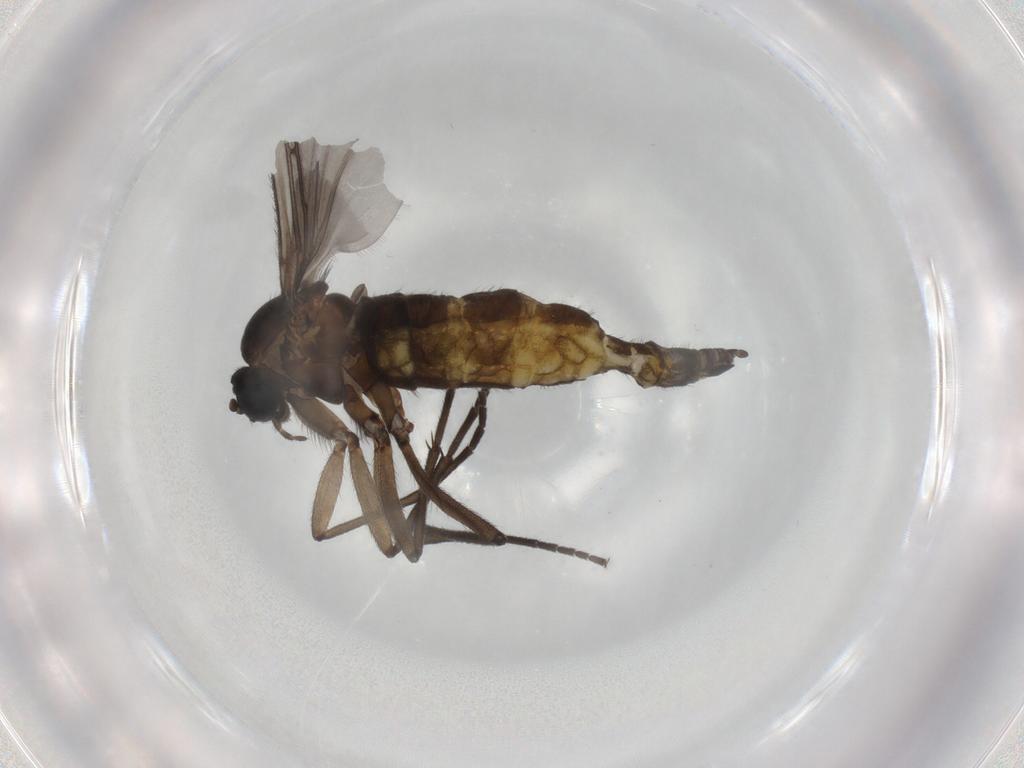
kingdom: Animalia
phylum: Arthropoda
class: Insecta
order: Diptera
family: Sciaridae
